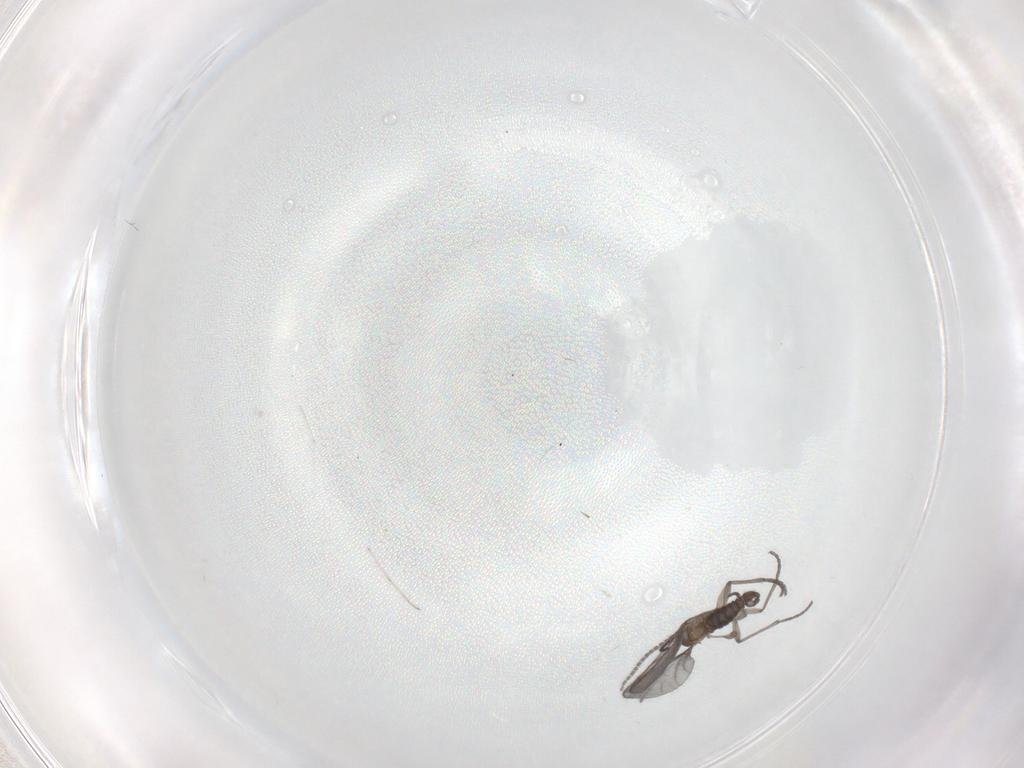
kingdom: Animalia
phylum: Arthropoda
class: Insecta
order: Diptera
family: Sciaridae
